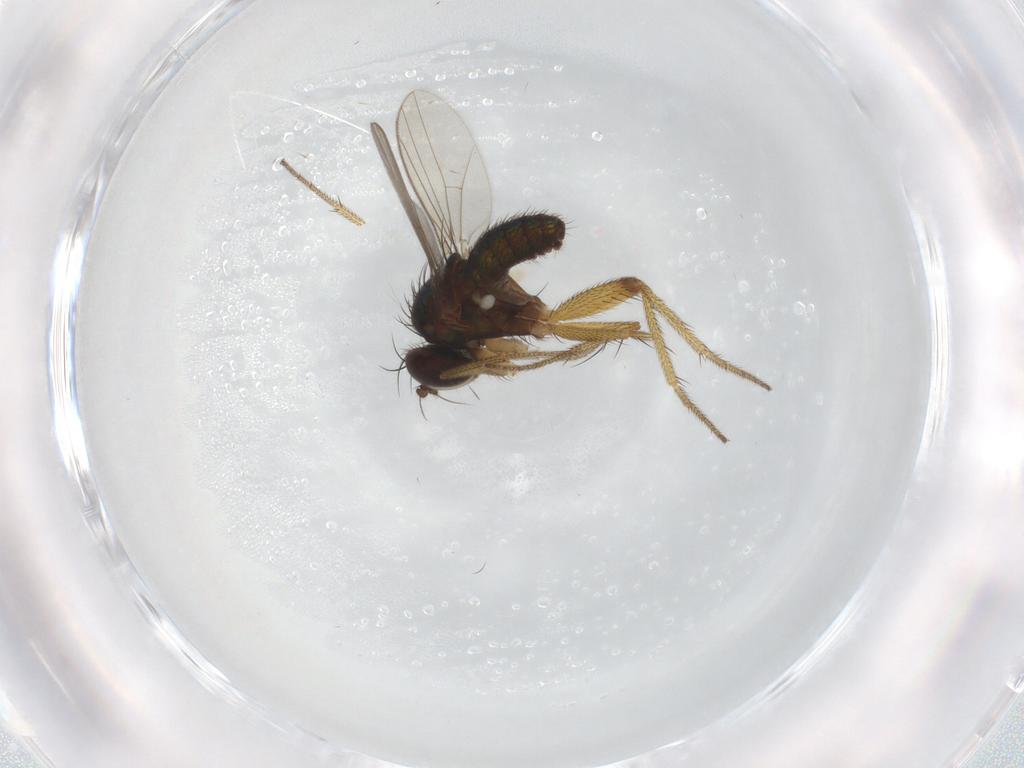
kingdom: Animalia
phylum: Arthropoda
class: Insecta
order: Diptera
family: Dolichopodidae
